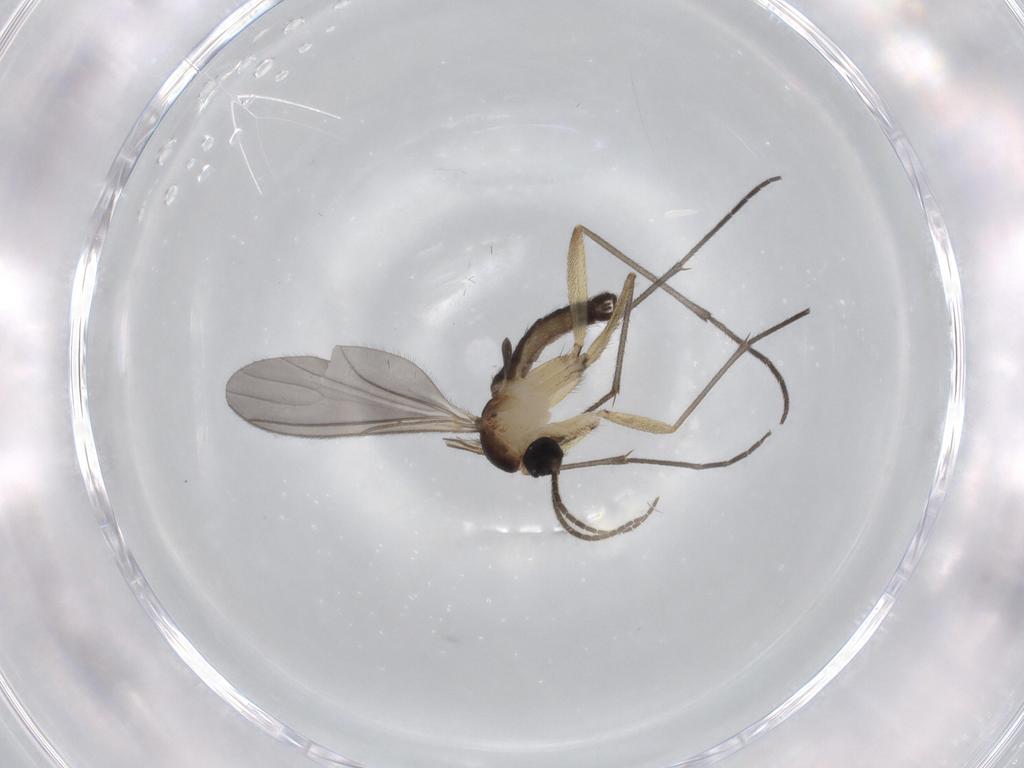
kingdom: Animalia
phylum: Arthropoda
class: Insecta
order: Diptera
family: Sciaridae
